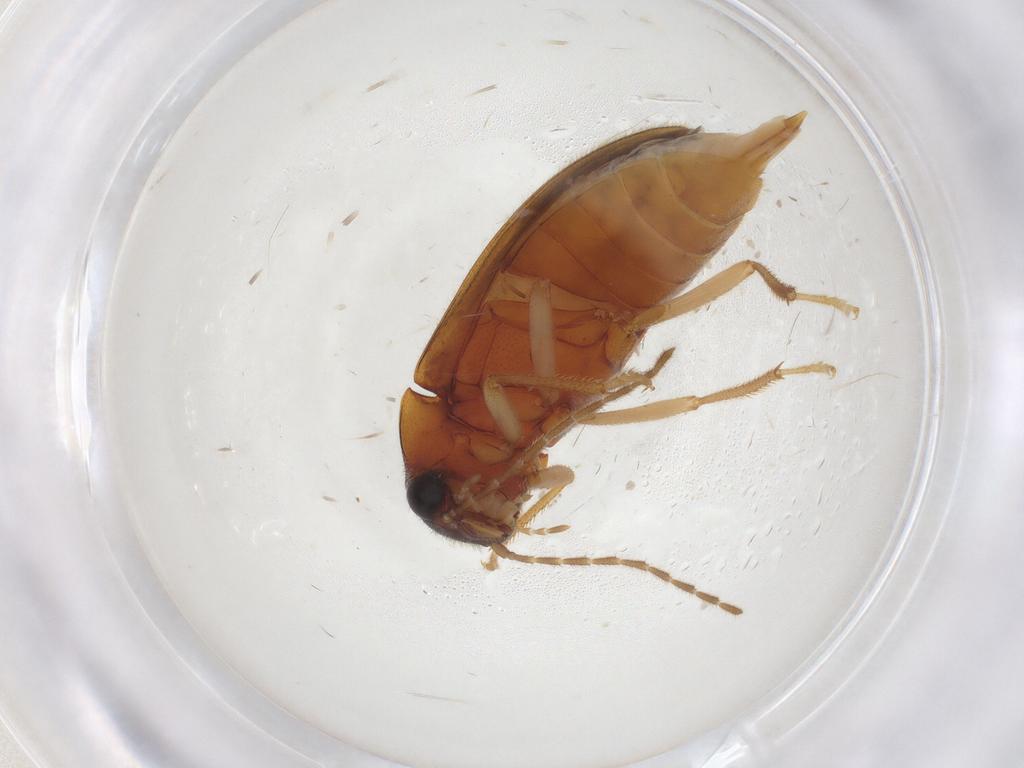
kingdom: Animalia
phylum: Arthropoda
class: Insecta
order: Coleoptera
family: Ptilodactylidae
